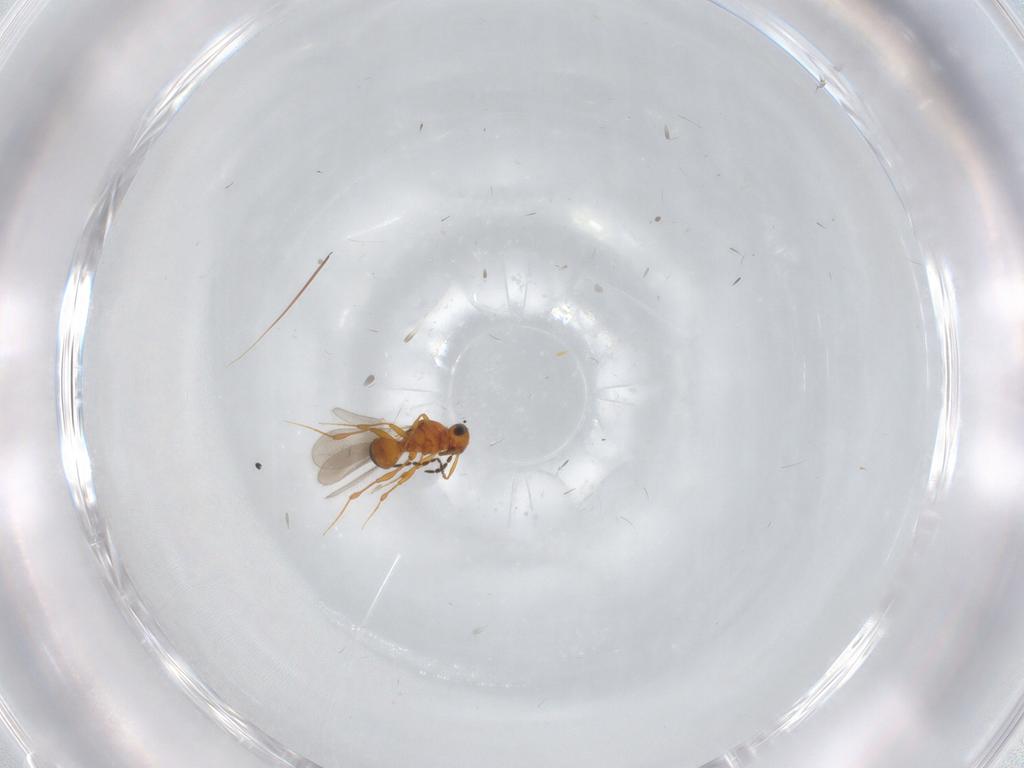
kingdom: Animalia
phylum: Arthropoda
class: Insecta
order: Hymenoptera
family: Platygastridae
